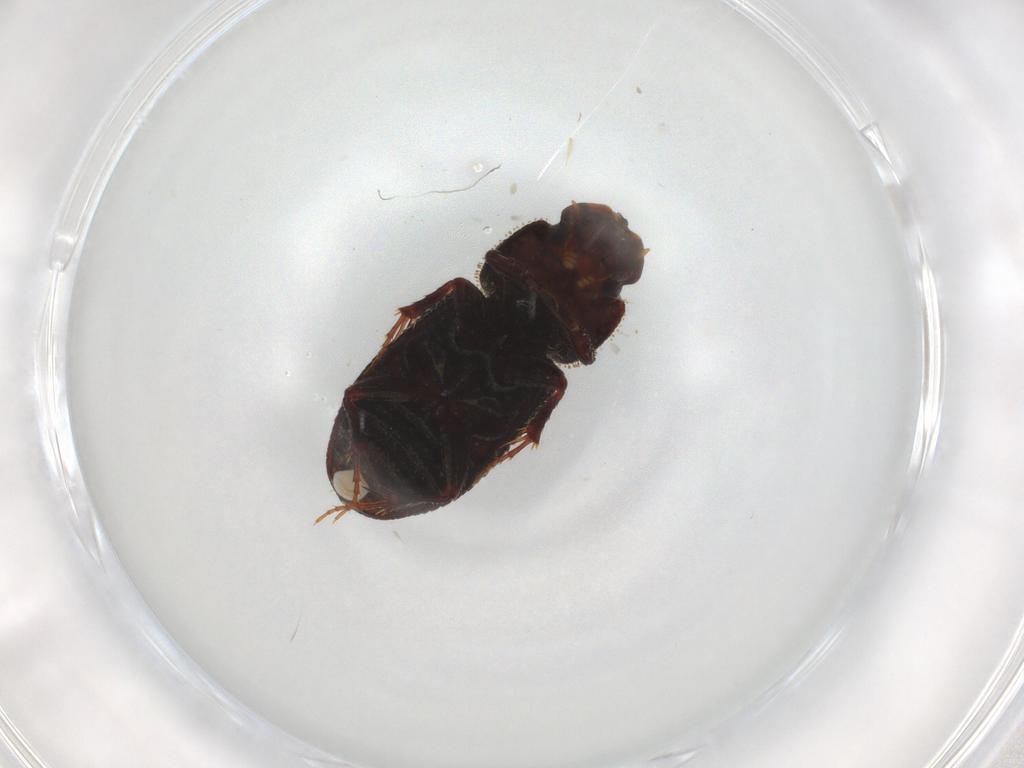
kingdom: Animalia
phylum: Arthropoda
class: Insecta
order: Coleoptera
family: Staphylinidae
